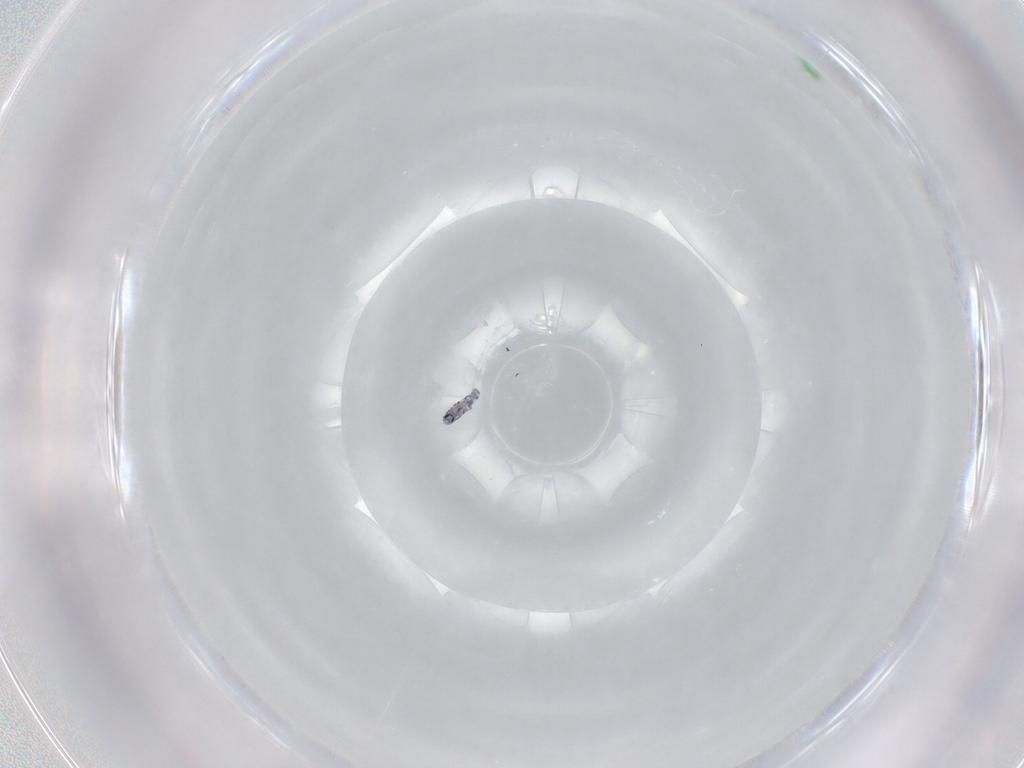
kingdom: Animalia
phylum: Arthropoda
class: Collembola
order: Entomobryomorpha
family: Entomobryidae
